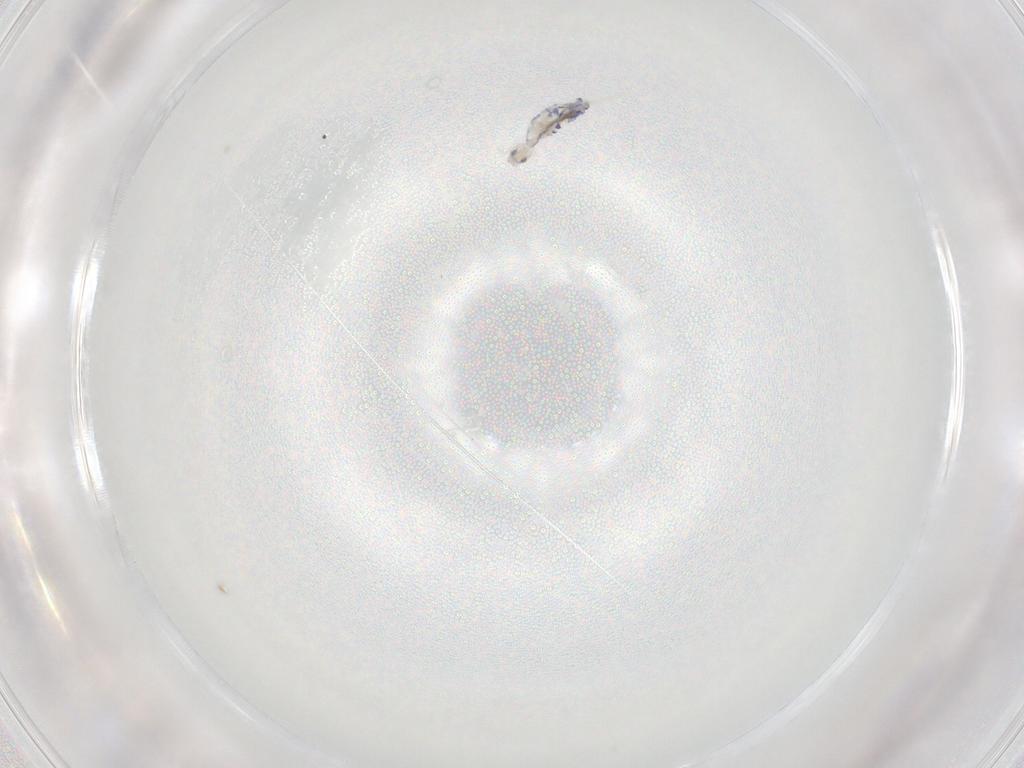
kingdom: Animalia
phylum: Arthropoda
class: Collembola
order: Entomobryomorpha
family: Entomobryidae
